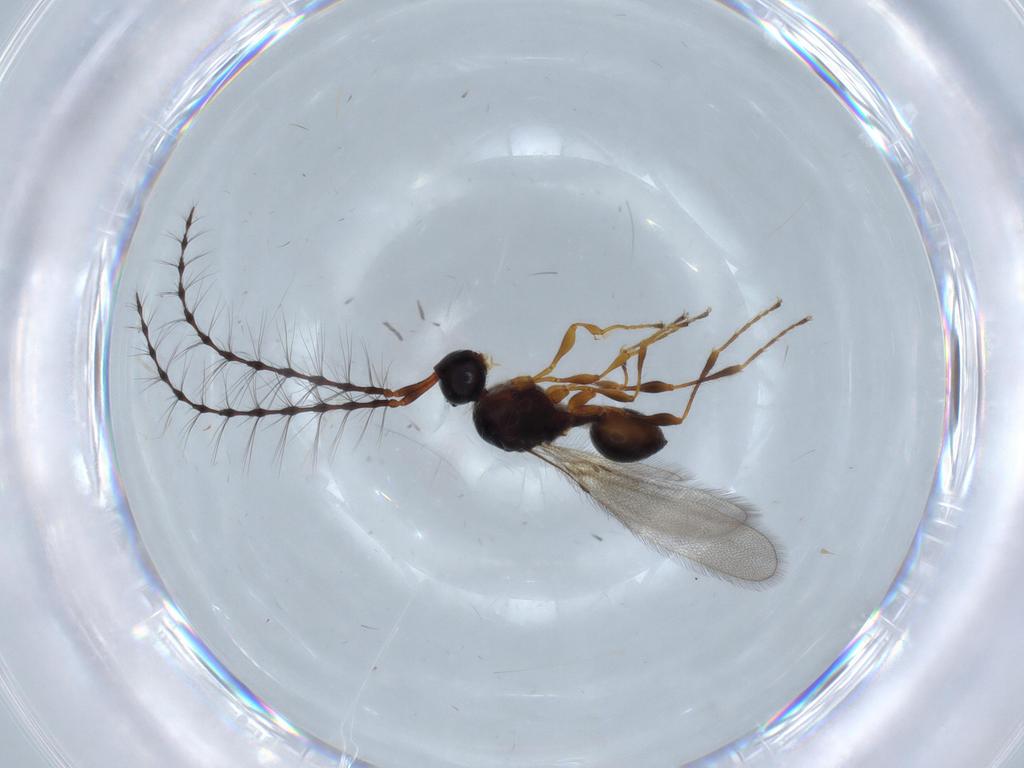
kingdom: Animalia
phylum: Arthropoda
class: Insecta
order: Hymenoptera
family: Diapriidae
